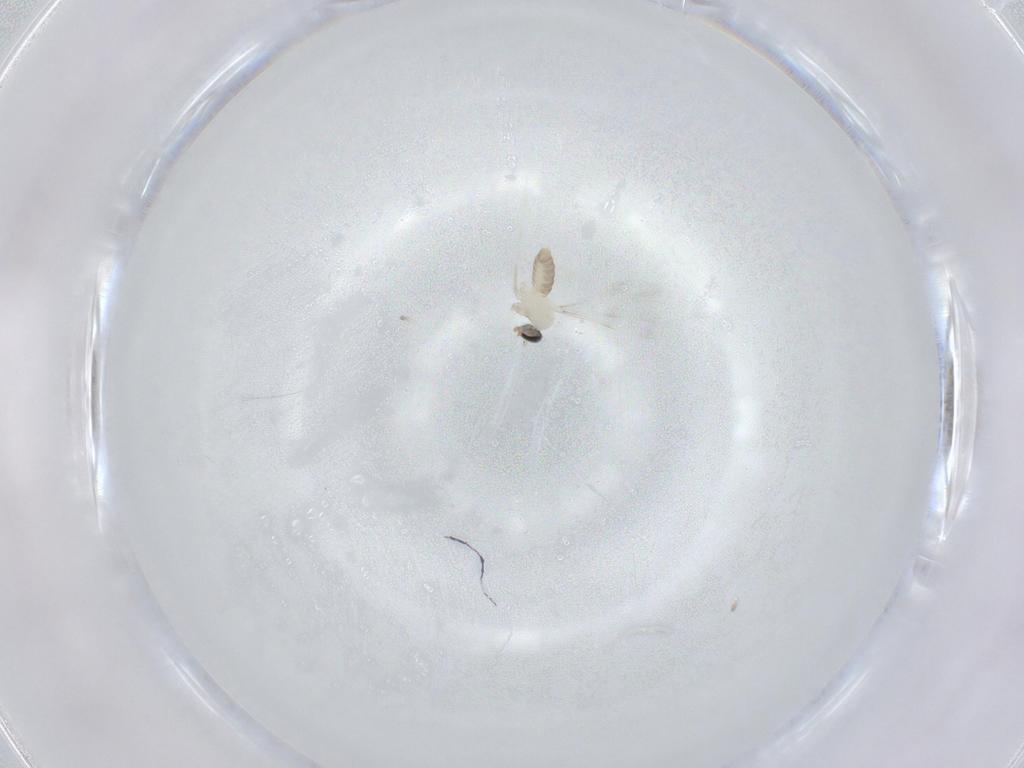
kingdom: Animalia
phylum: Arthropoda
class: Insecta
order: Diptera
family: Cecidomyiidae
